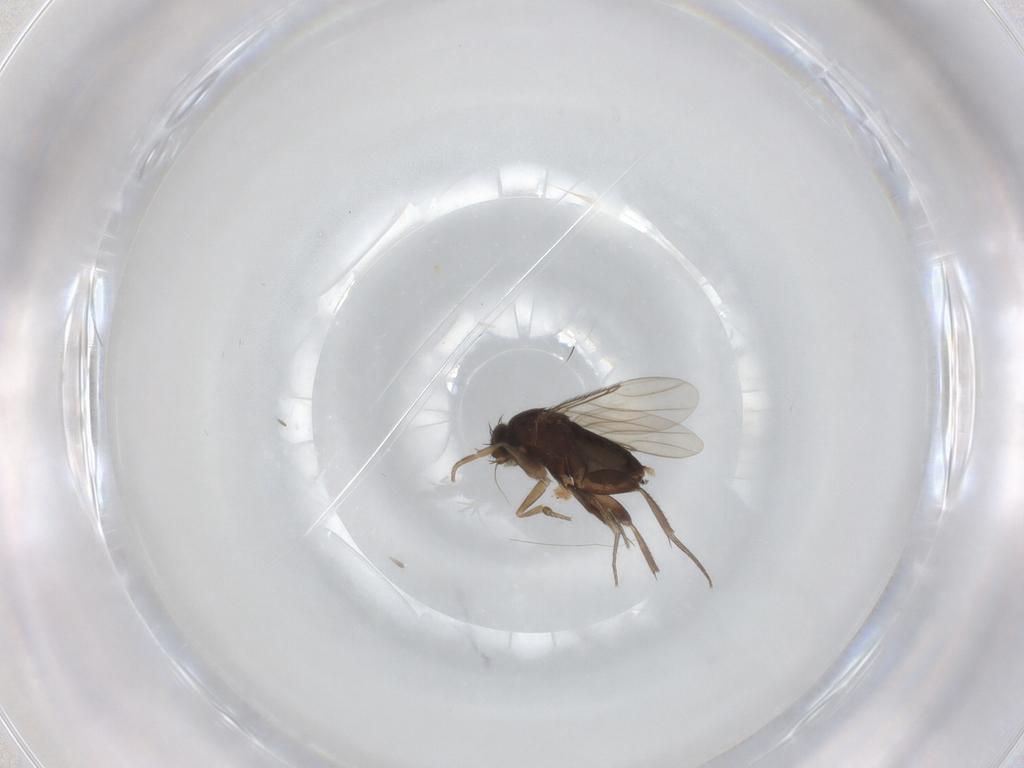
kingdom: Animalia
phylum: Arthropoda
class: Insecta
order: Diptera
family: Phoridae
